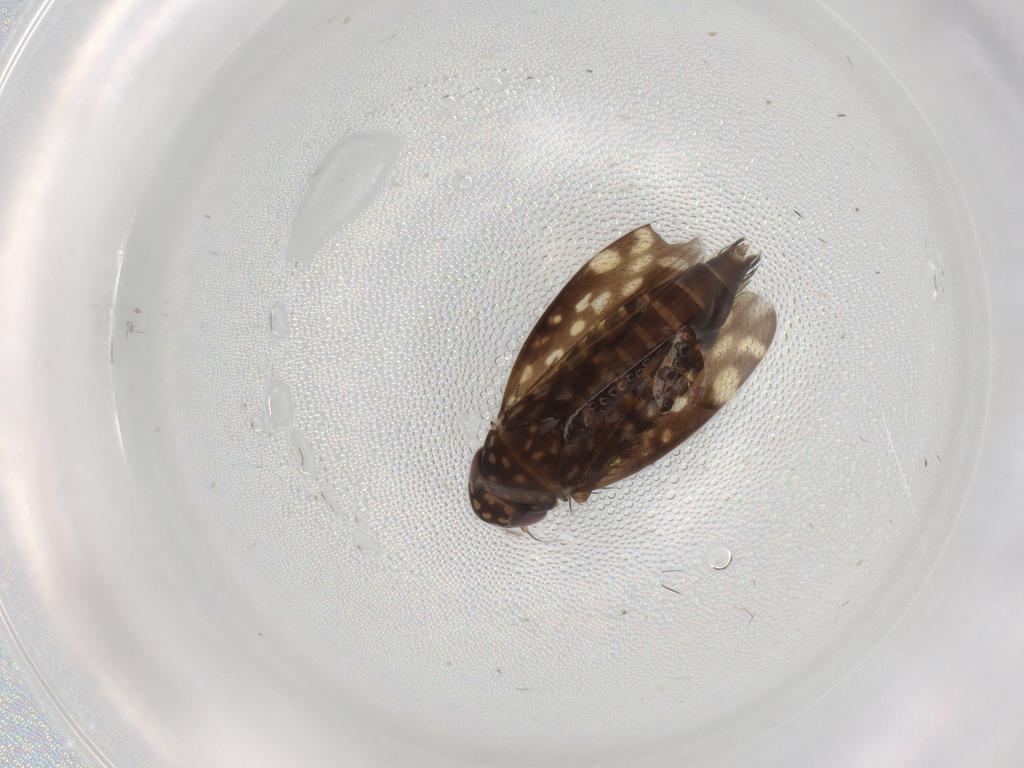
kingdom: Animalia
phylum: Arthropoda
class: Insecta
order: Hemiptera
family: Cicadellidae
